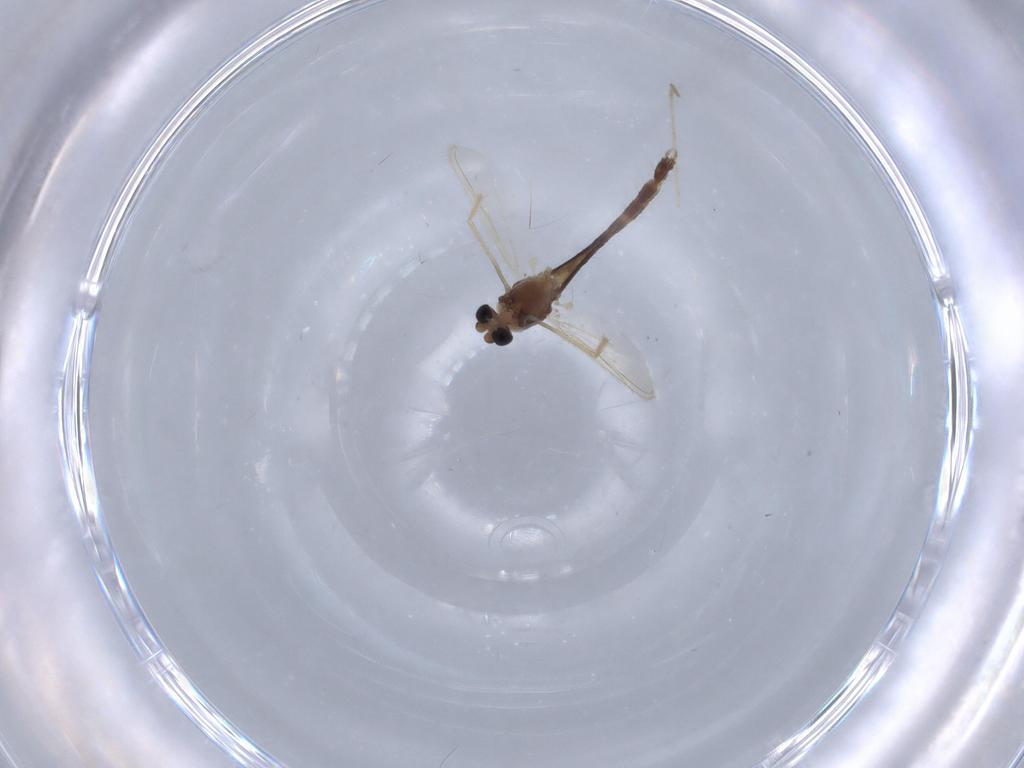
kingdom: Animalia
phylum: Arthropoda
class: Insecta
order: Diptera
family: Chironomidae
